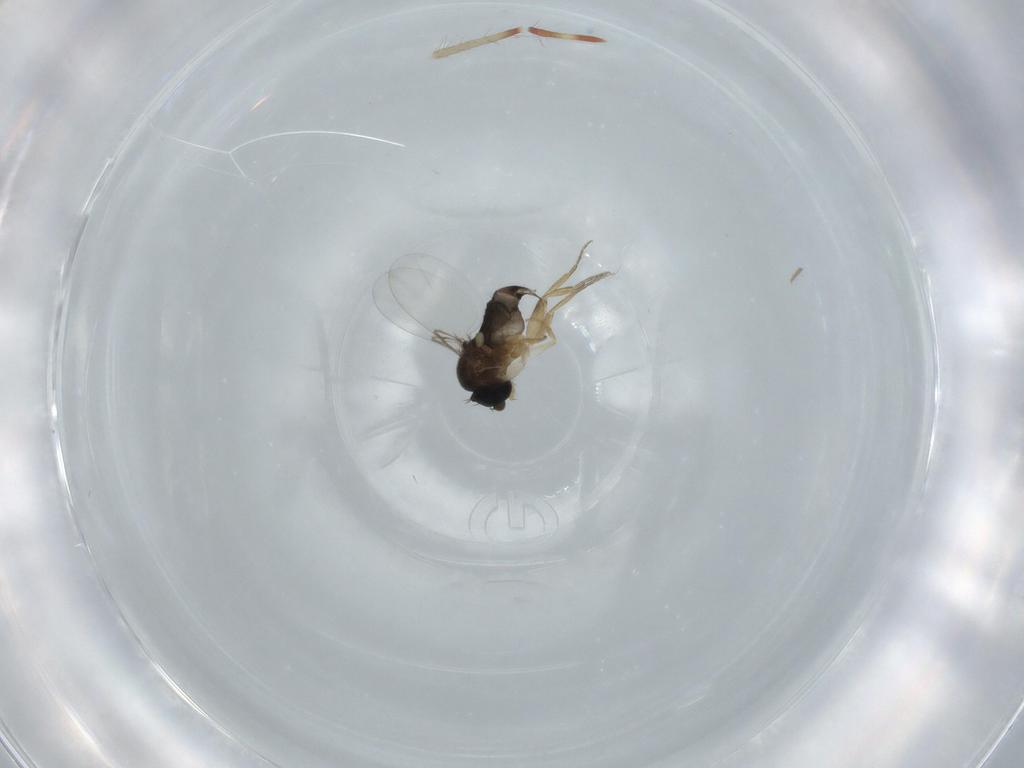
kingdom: Animalia
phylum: Arthropoda
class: Insecta
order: Diptera
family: Phoridae
